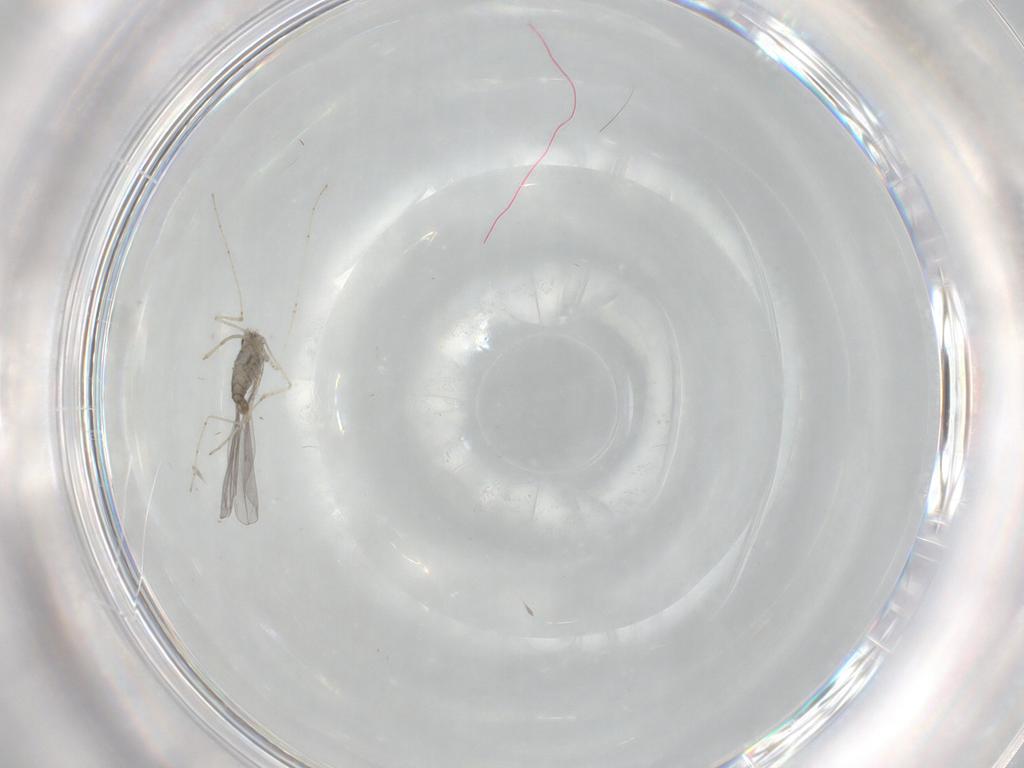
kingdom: Animalia
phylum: Arthropoda
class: Insecta
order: Diptera
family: Cecidomyiidae
